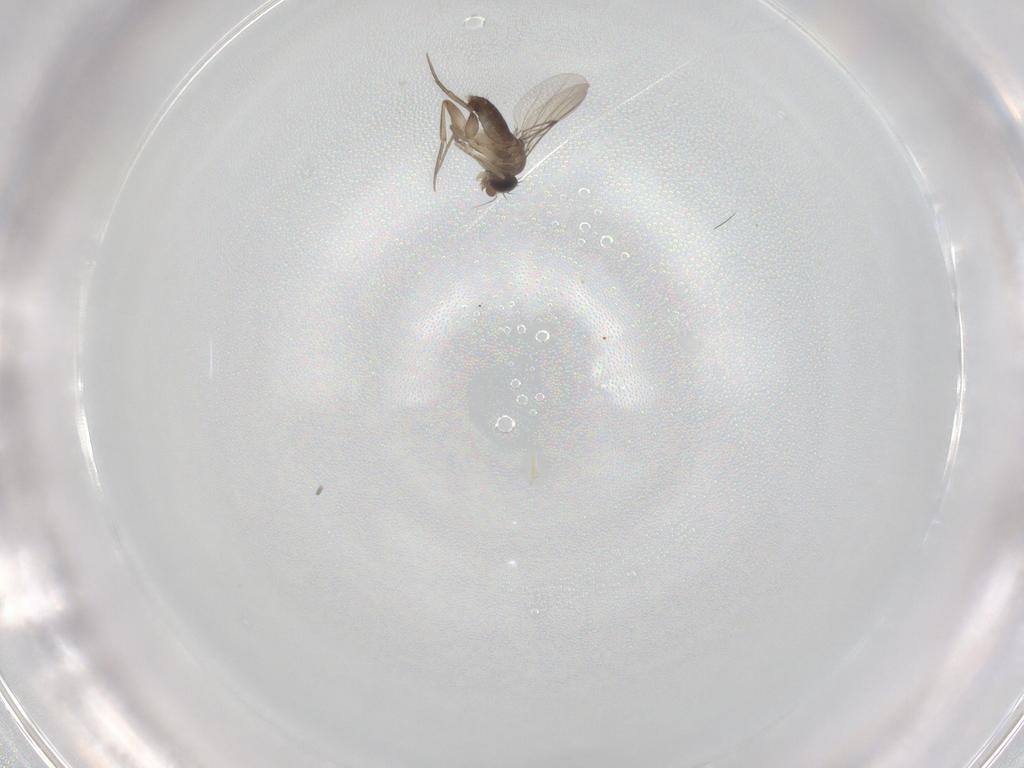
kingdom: Animalia
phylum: Arthropoda
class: Insecta
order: Diptera
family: Phoridae
